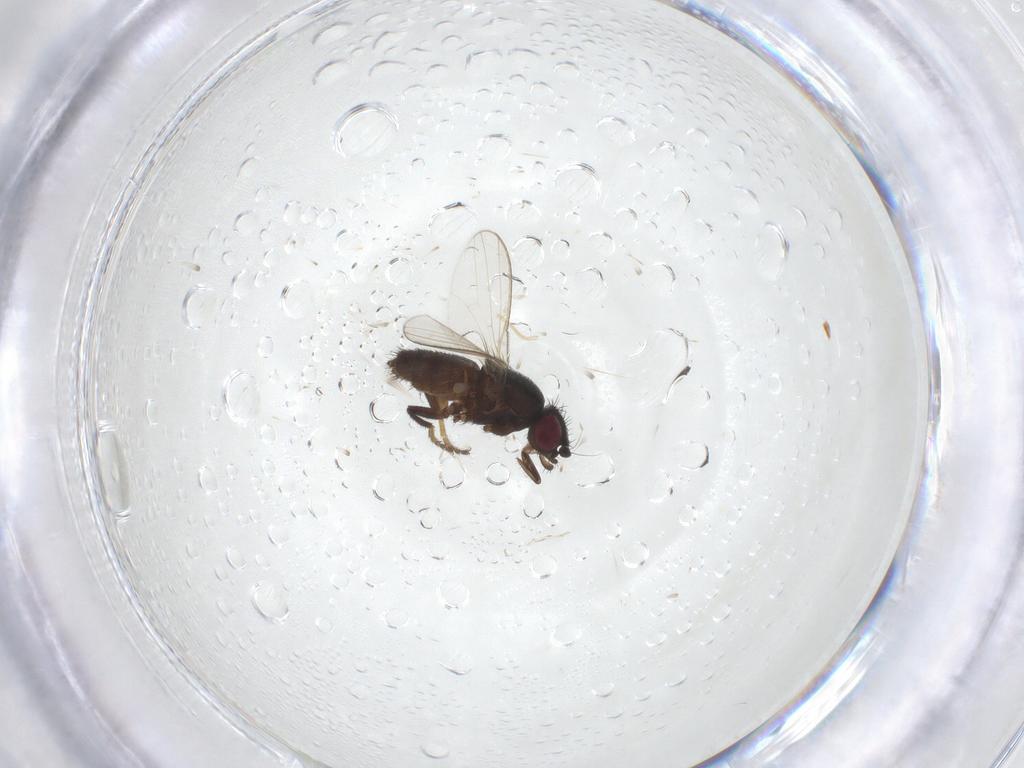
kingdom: Animalia
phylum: Arthropoda
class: Insecta
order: Diptera
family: Milichiidae
